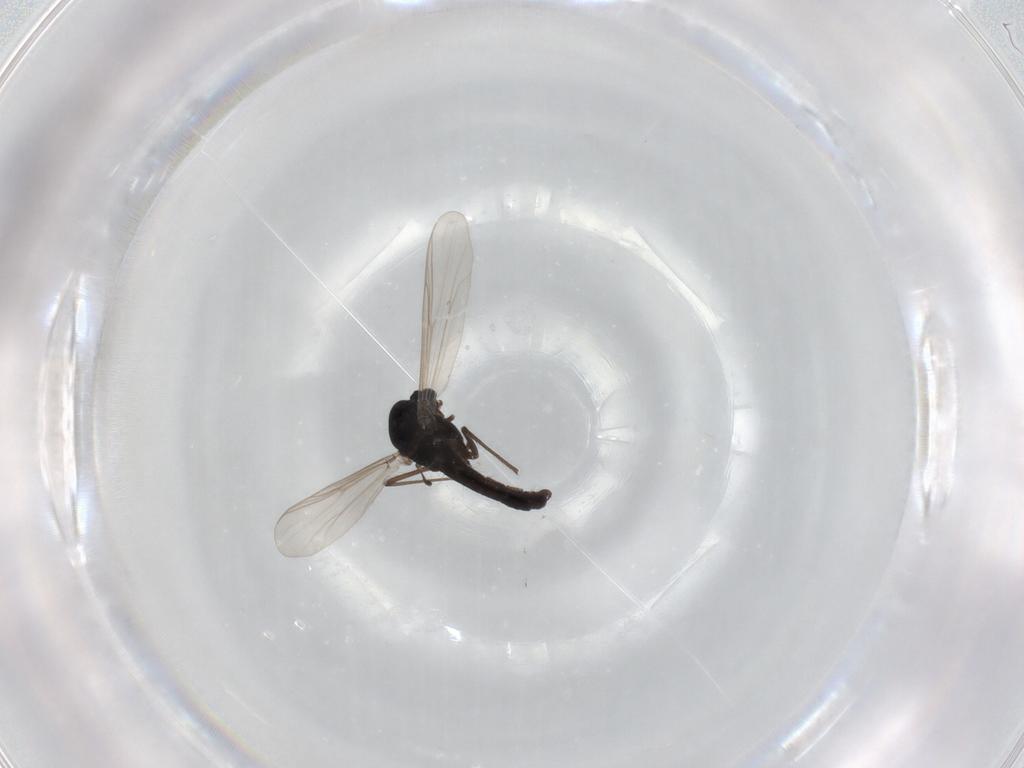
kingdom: Animalia
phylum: Arthropoda
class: Insecta
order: Diptera
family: Chironomidae
